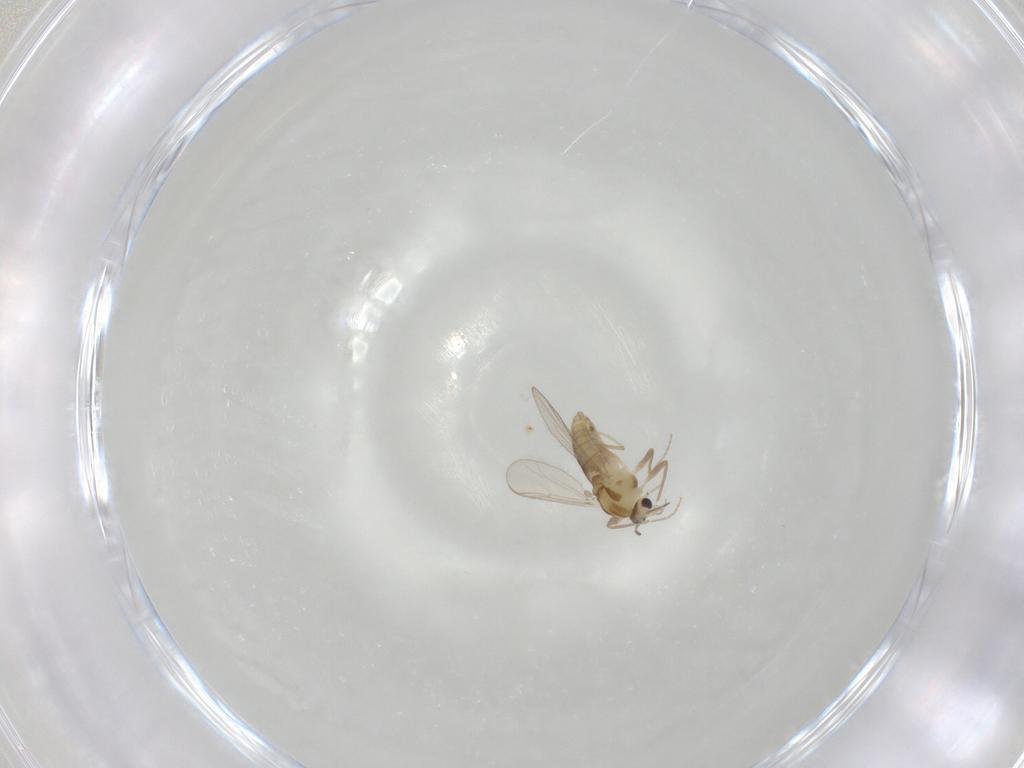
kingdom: Animalia
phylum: Arthropoda
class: Insecta
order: Diptera
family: Chironomidae
